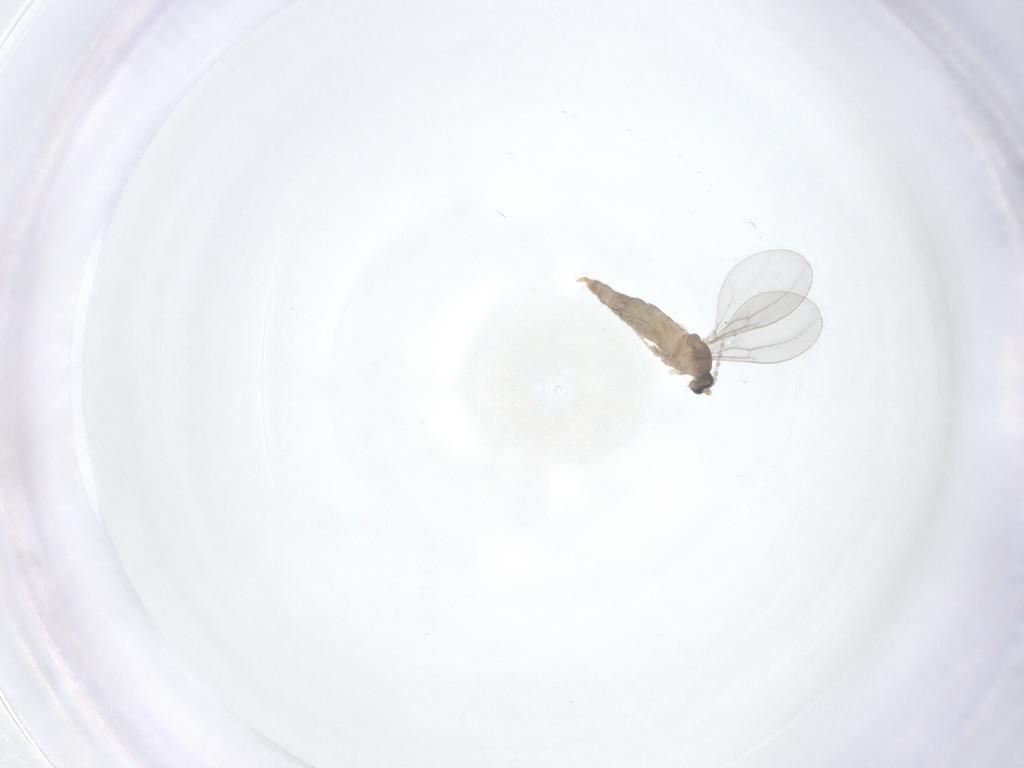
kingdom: Animalia
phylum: Arthropoda
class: Insecta
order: Diptera
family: Cecidomyiidae
